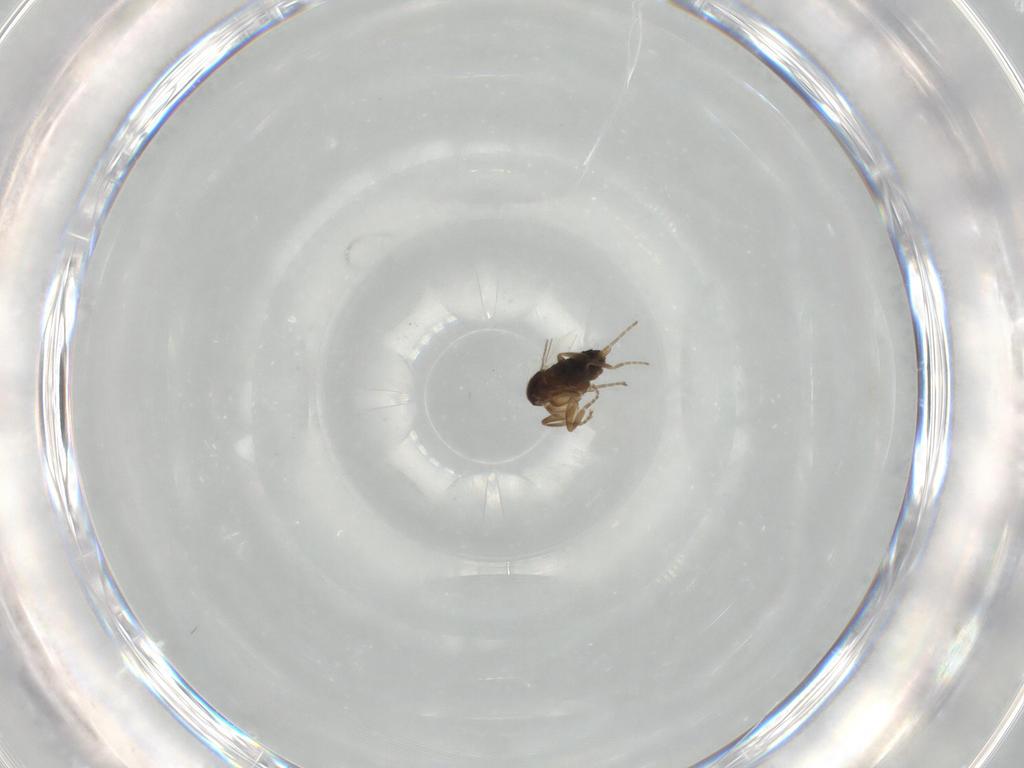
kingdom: Animalia
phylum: Arthropoda
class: Insecta
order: Diptera
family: Phoridae
